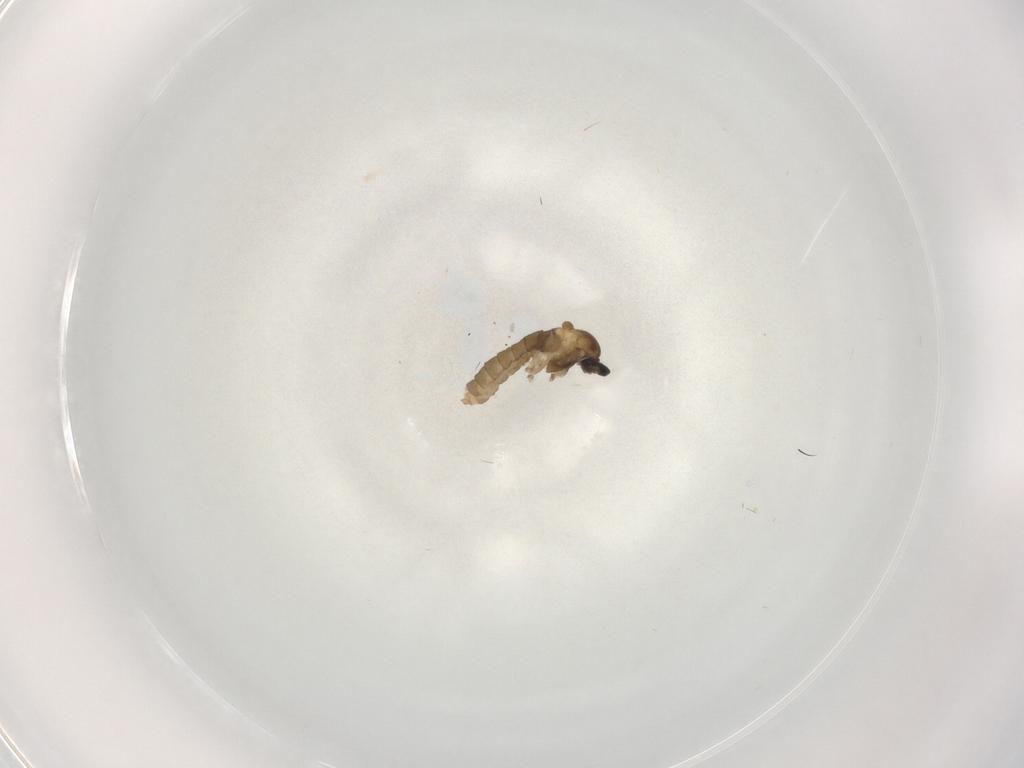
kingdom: Animalia
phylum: Arthropoda
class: Insecta
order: Diptera
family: Cecidomyiidae
